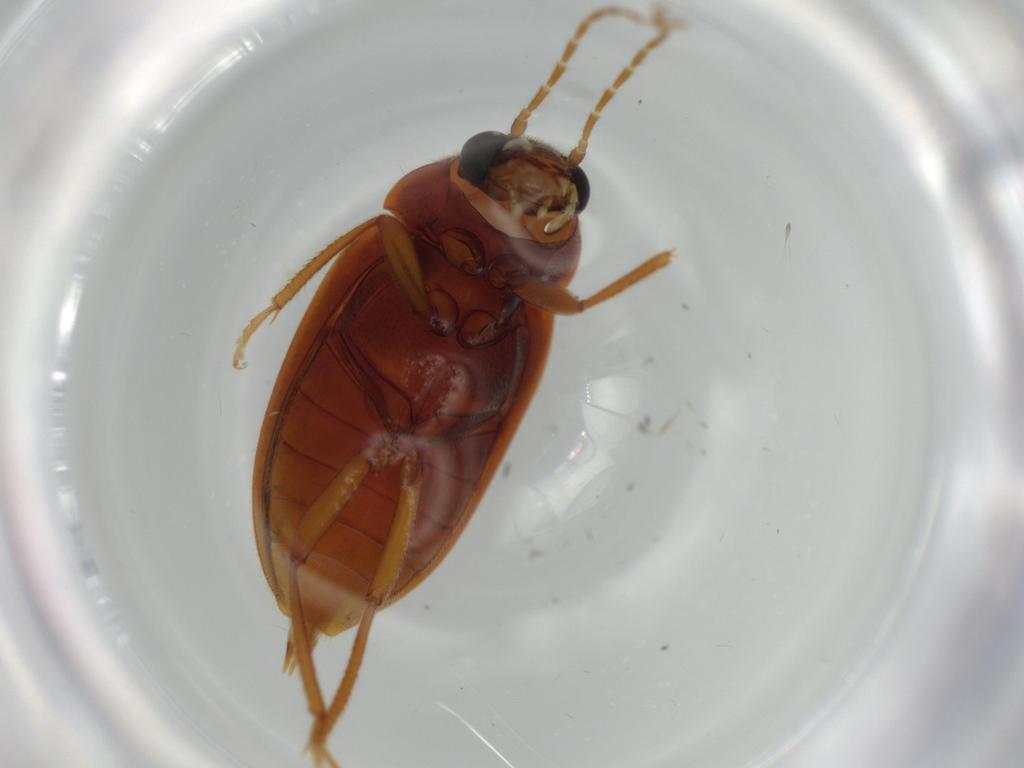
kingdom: Animalia
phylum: Arthropoda
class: Insecta
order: Coleoptera
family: Ptilodactylidae
